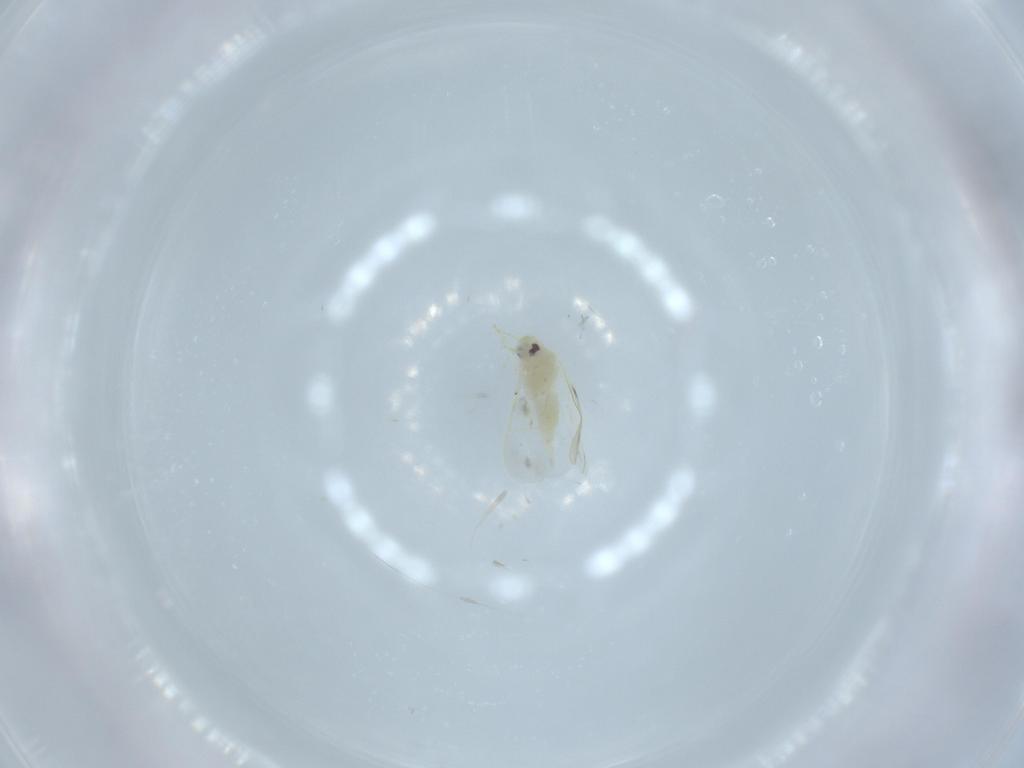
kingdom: Animalia
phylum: Arthropoda
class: Insecta
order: Hemiptera
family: Aleyrodidae
